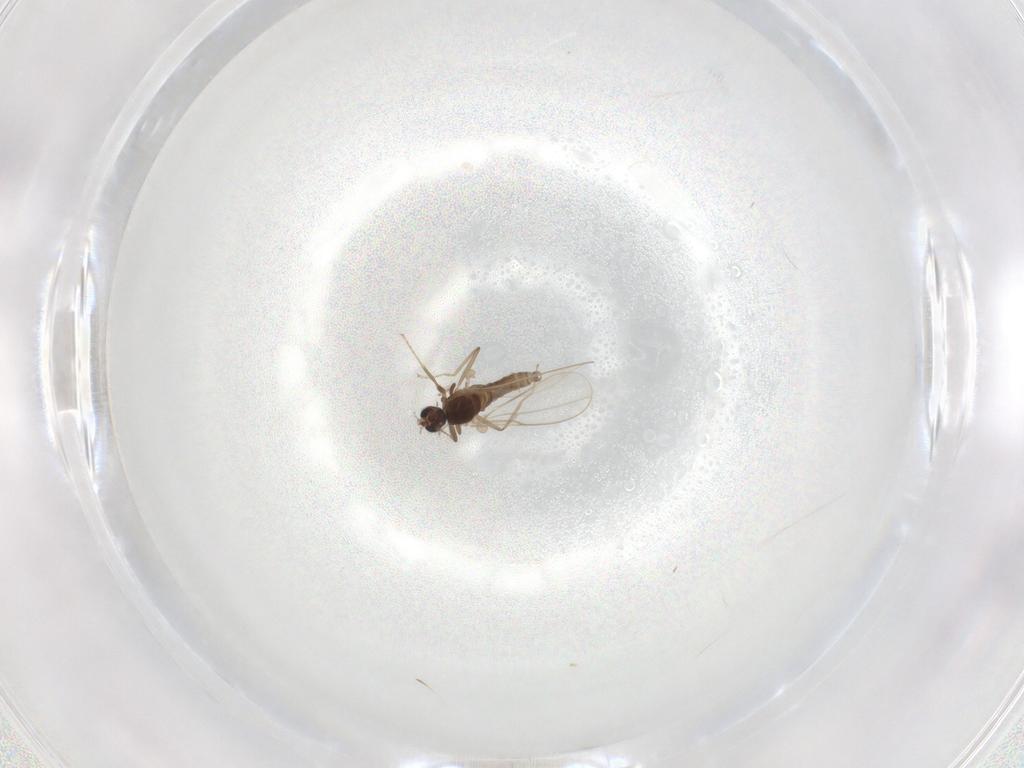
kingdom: Animalia
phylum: Arthropoda
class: Insecta
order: Diptera
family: Cecidomyiidae
